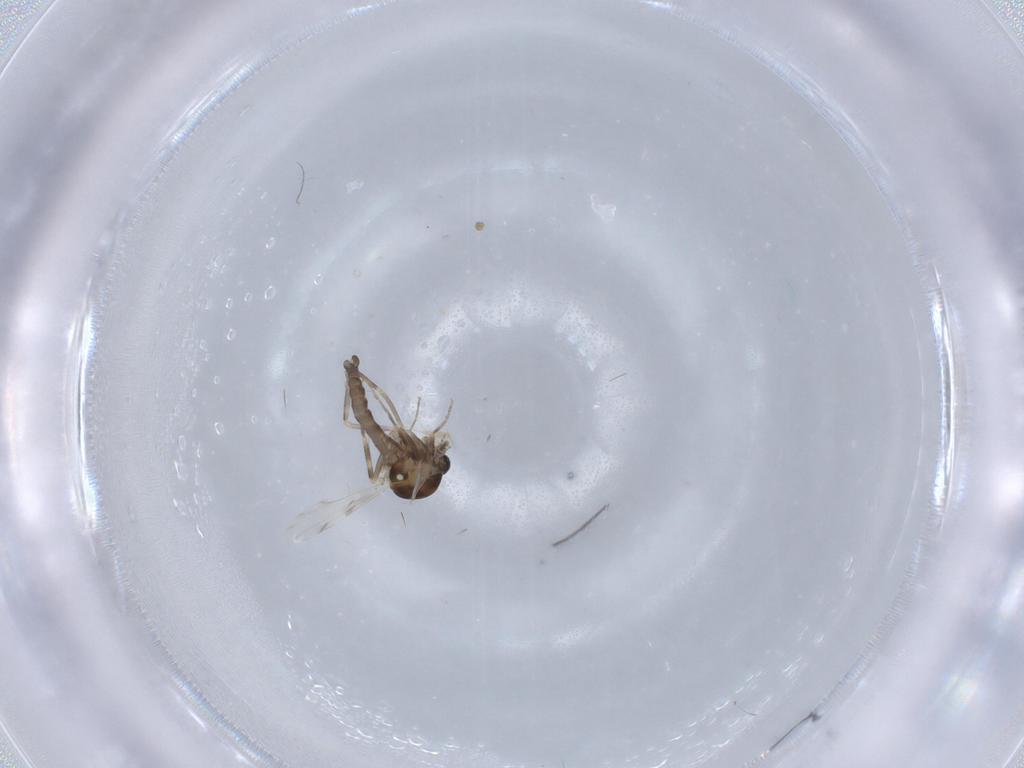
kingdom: Animalia
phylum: Arthropoda
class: Insecta
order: Diptera
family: Ceratopogonidae
